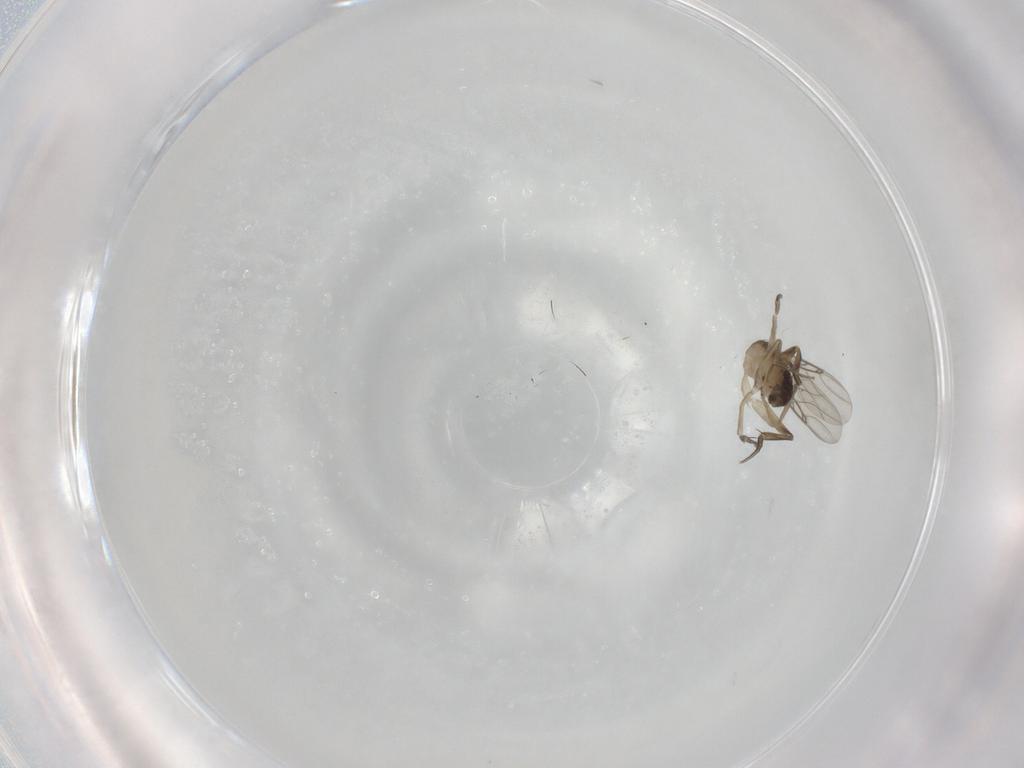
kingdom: Animalia
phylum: Arthropoda
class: Insecta
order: Diptera
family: Phoridae
